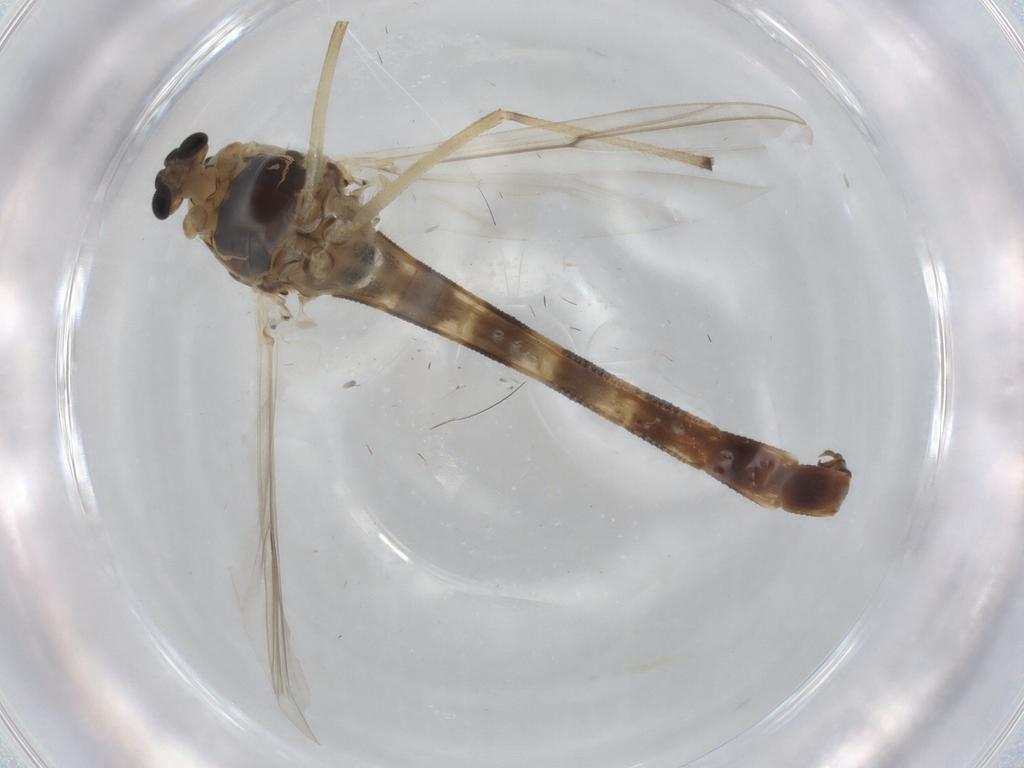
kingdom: Animalia
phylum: Arthropoda
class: Insecta
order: Diptera
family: Chironomidae
